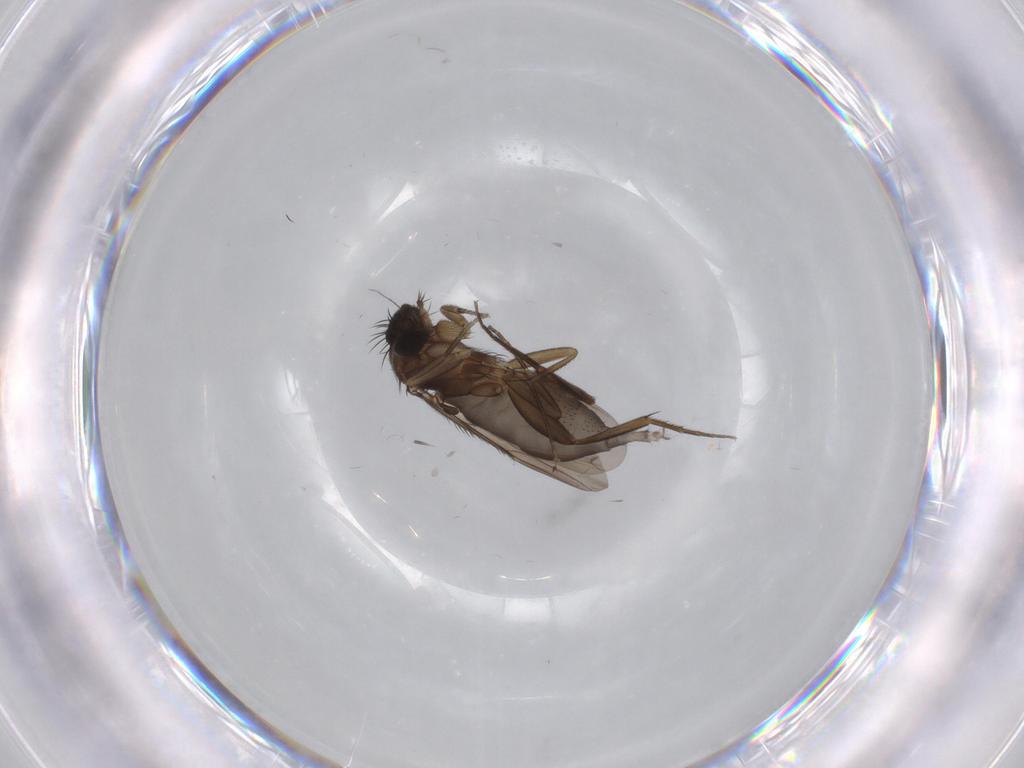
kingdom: Animalia
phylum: Arthropoda
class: Insecta
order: Diptera
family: Phoridae
